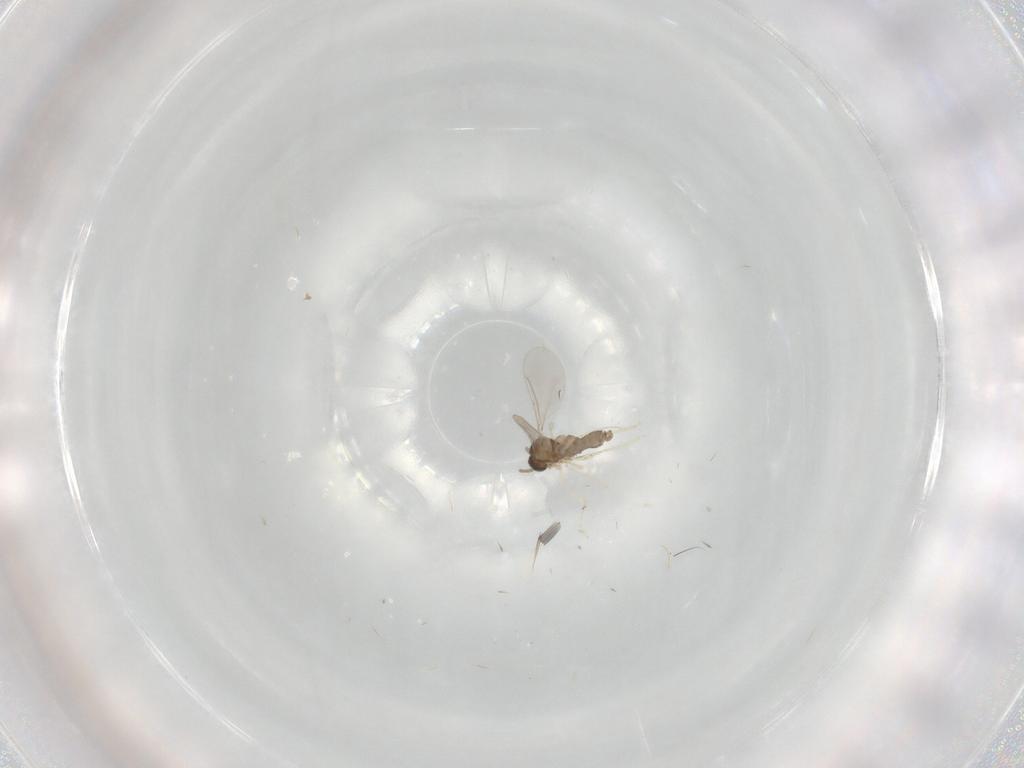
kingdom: Animalia
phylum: Arthropoda
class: Insecta
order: Diptera
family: Cecidomyiidae
